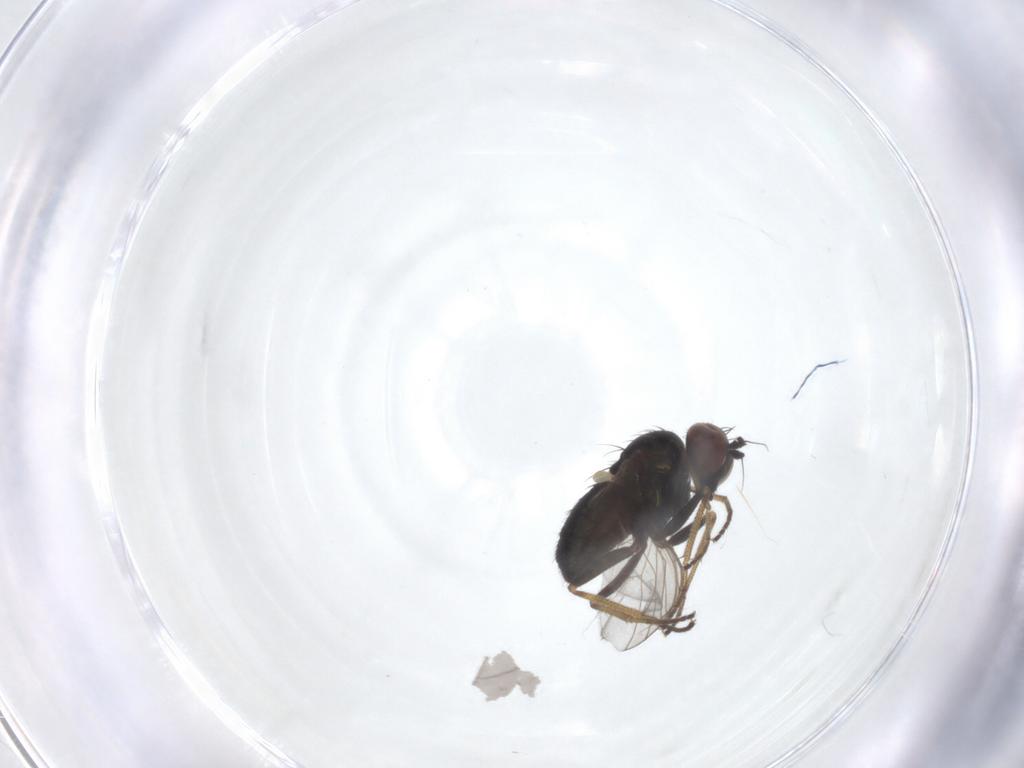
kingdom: Animalia
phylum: Arthropoda
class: Insecta
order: Diptera
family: Dolichopodidae
